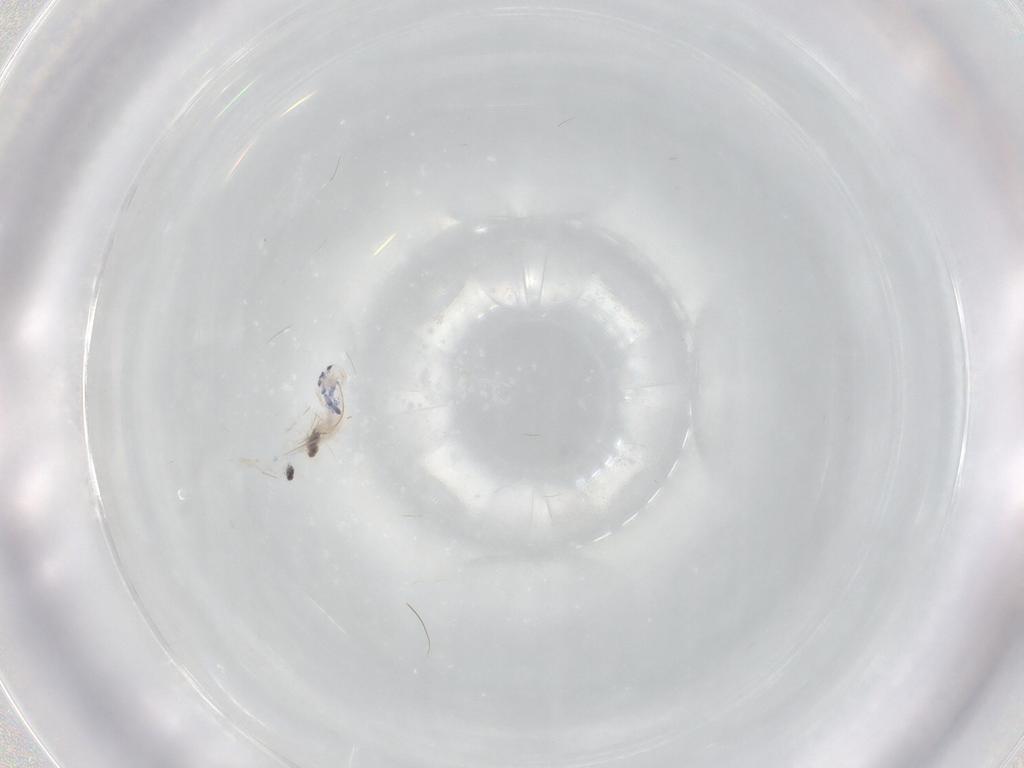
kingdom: Animalia
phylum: Arthropoda
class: Collembola
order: Entomobryomorpha
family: Entomobryidae
